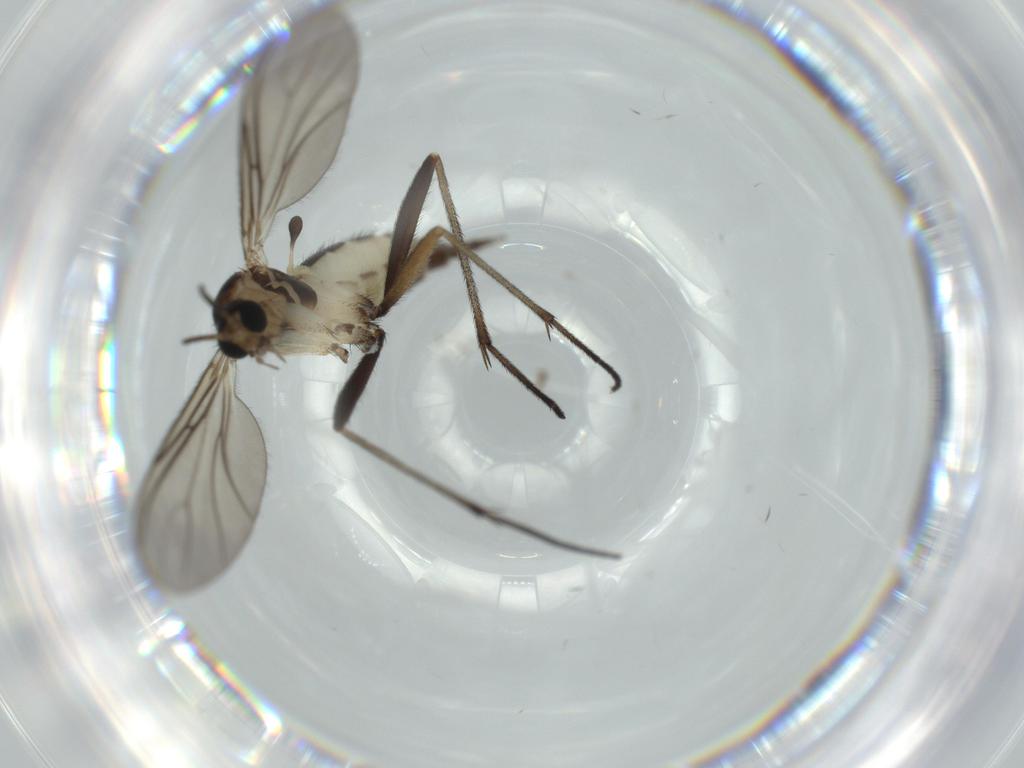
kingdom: Animalia
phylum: Arthropoda
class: Insecta
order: Diptera
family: Sciaridae
